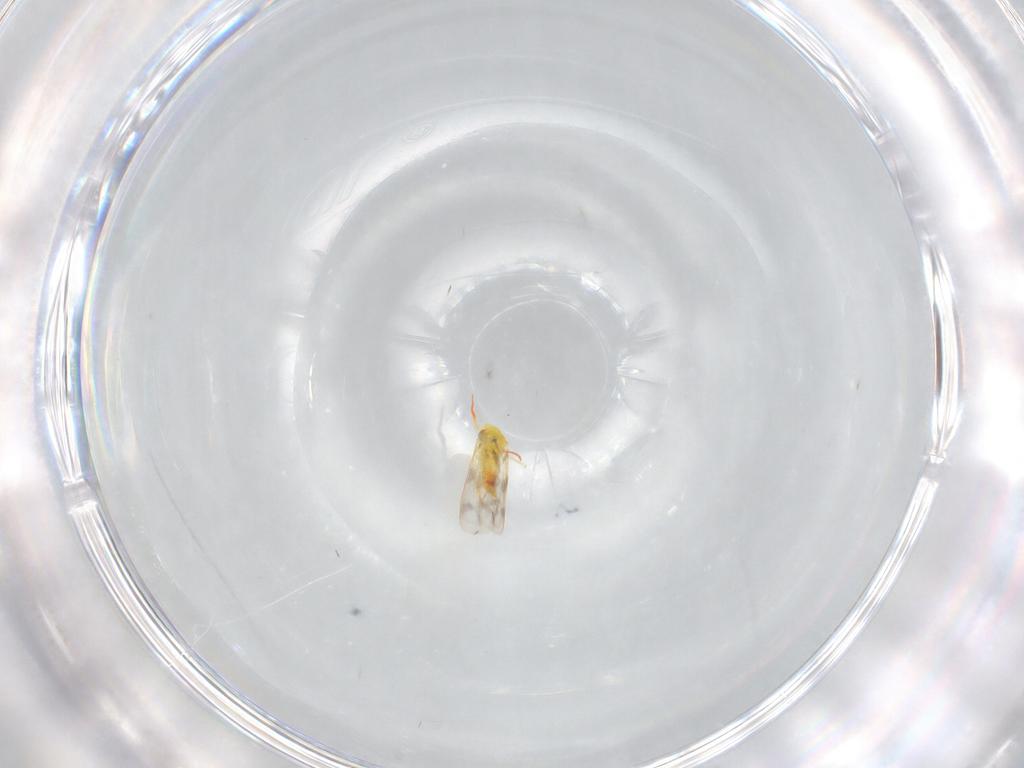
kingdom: Animalia
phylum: Arthropoda
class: Insecta
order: Hemiptera
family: Aleyrodidae
